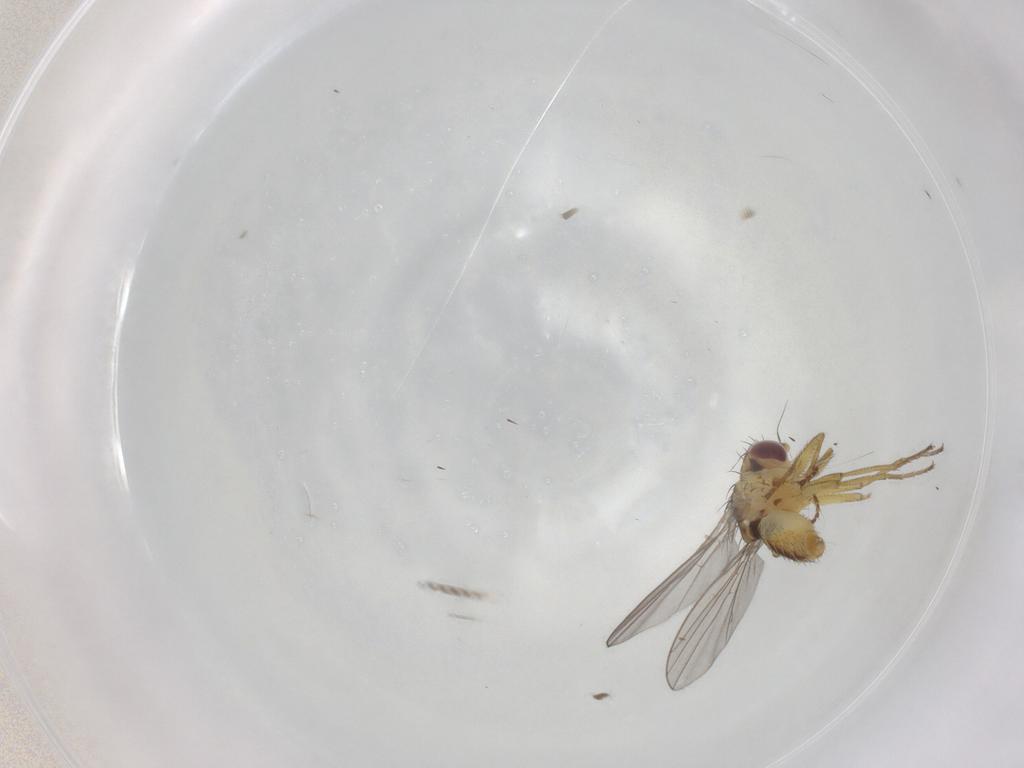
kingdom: Animalia
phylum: Arthropoda
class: Insecta
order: Diptera
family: Agromyzidae
